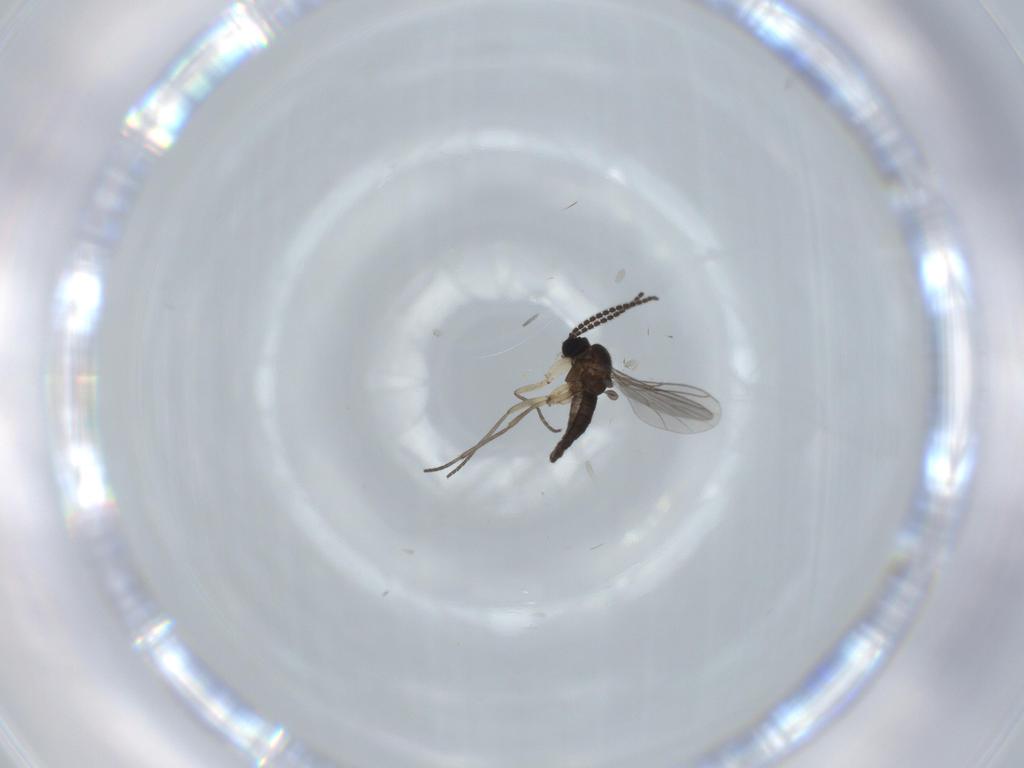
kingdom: Animalia
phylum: Arthropoda
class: Insecta
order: Diptera
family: Sciaridae
